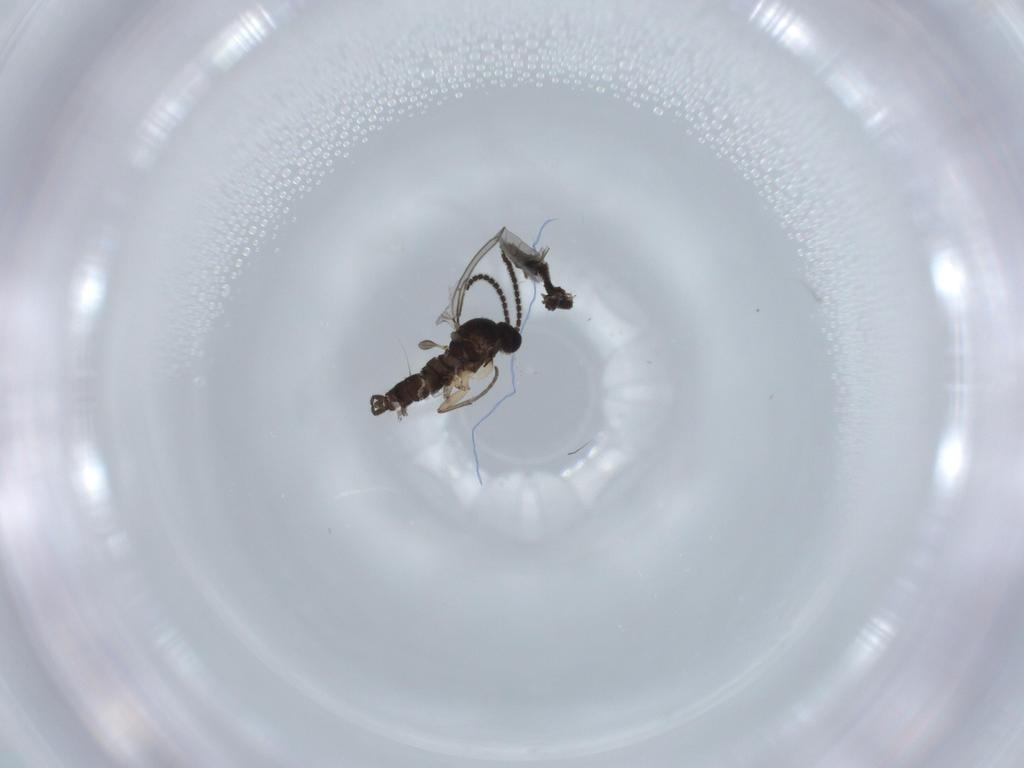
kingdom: Animalia
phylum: Arthropoda
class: Insecta
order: Diptera
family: Sciaridae
